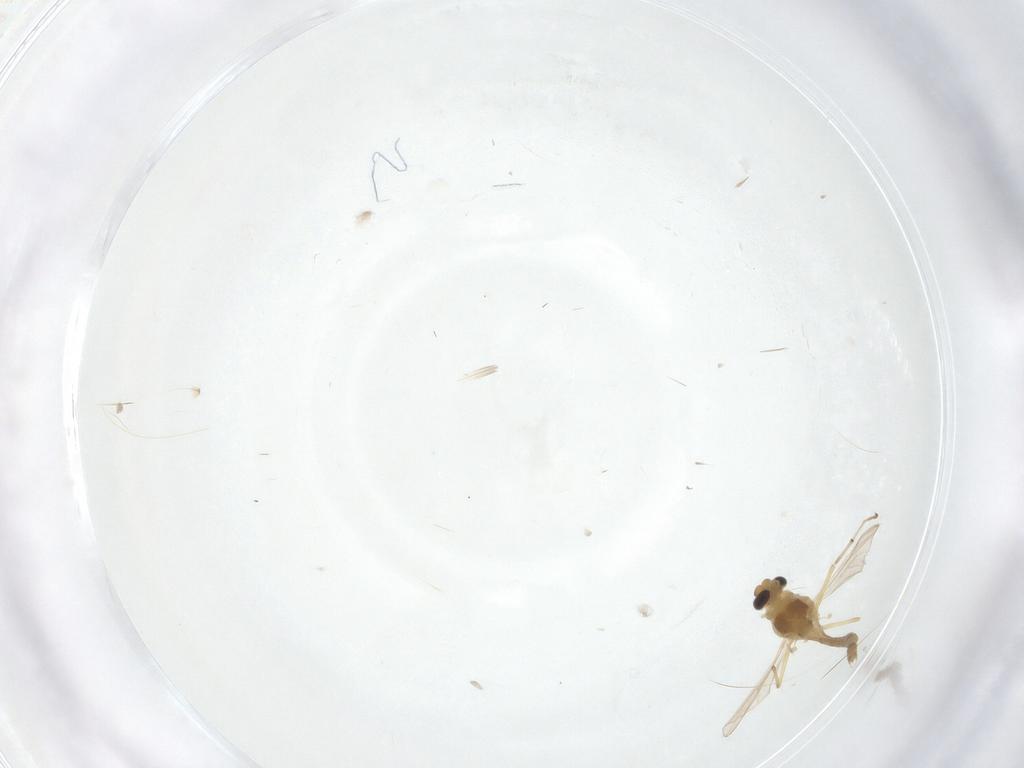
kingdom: Animalia
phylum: Arthropoda
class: Insecta
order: Diptera
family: Chironomidae
